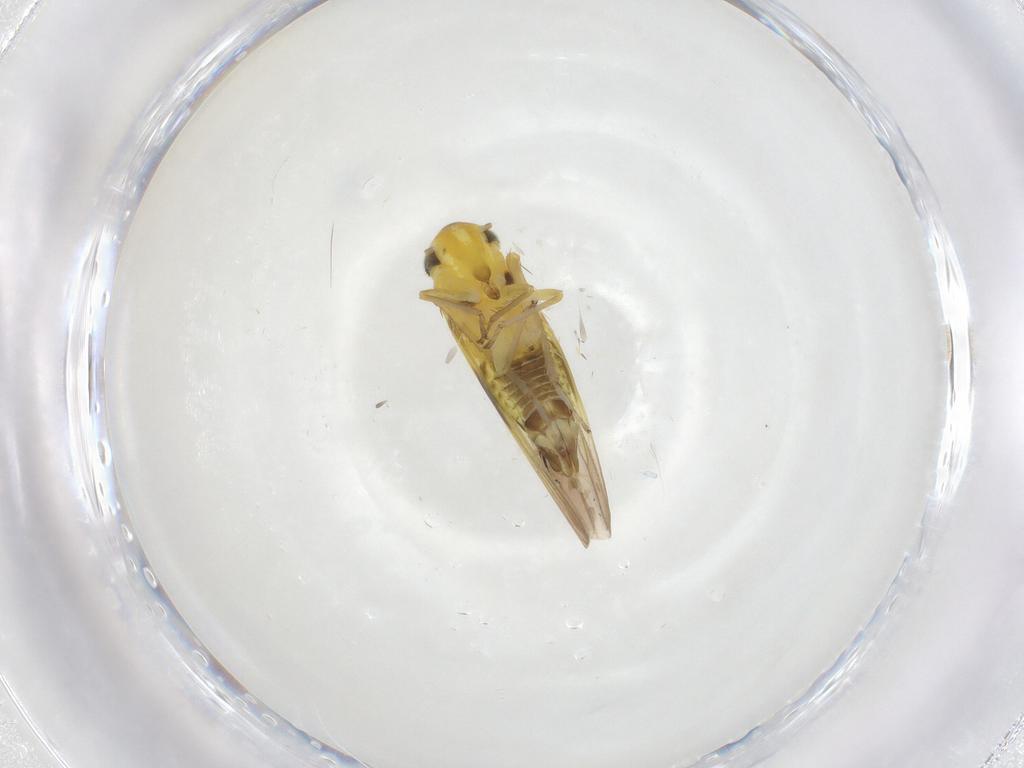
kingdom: Animalia
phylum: Arthropoda
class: Insecta
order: Hemiptera
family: Cicadellidae
